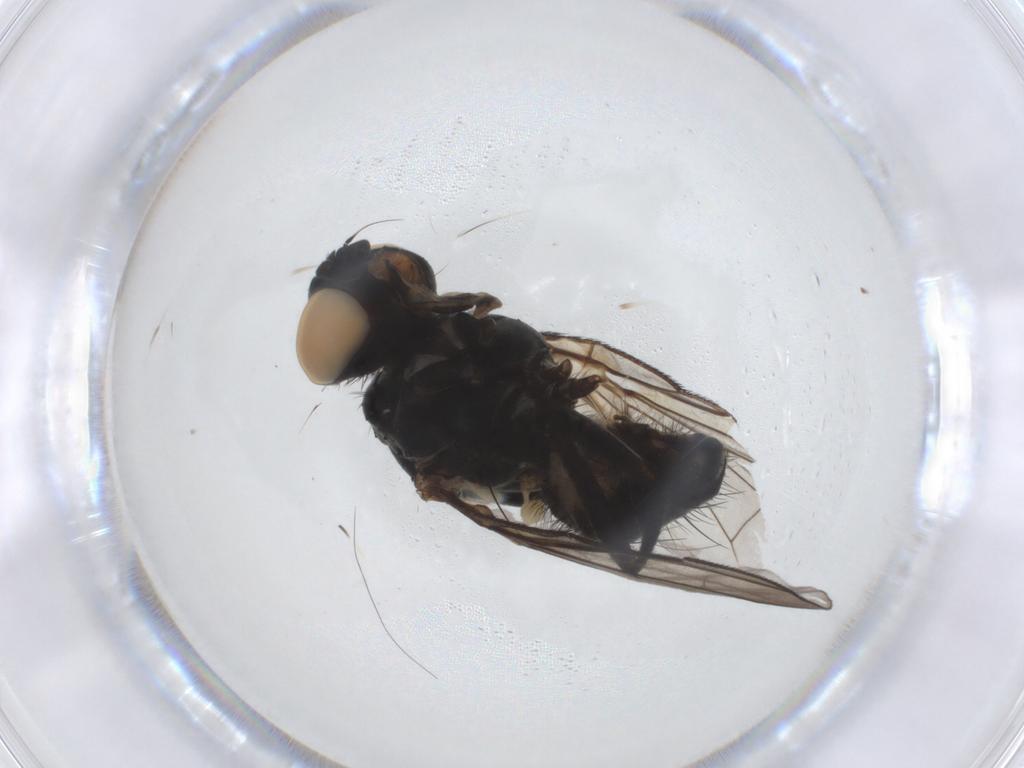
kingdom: Animalia
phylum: Arthropoda
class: Insecta
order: Diptera
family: Anthomyiidae
